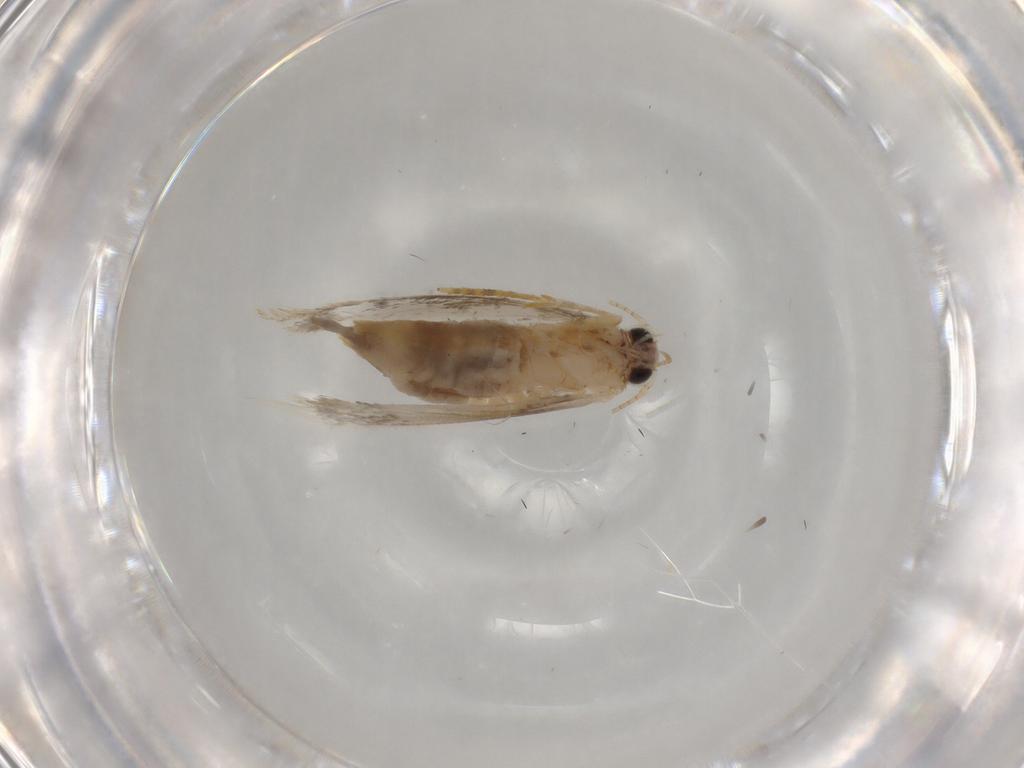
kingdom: Animalia
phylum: Arthropoda
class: Insecta
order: Lepidoptera
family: Tineidae
